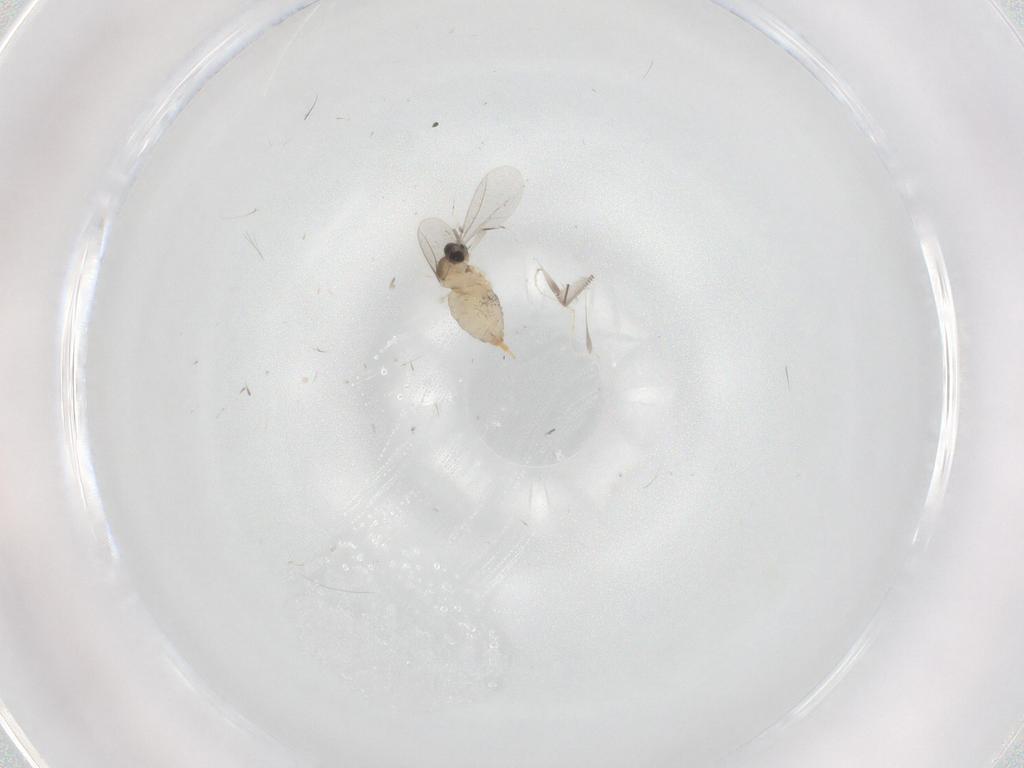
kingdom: Animalia
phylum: Arthropoda
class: Insecta
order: Diptera
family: Cecidomyiidae
